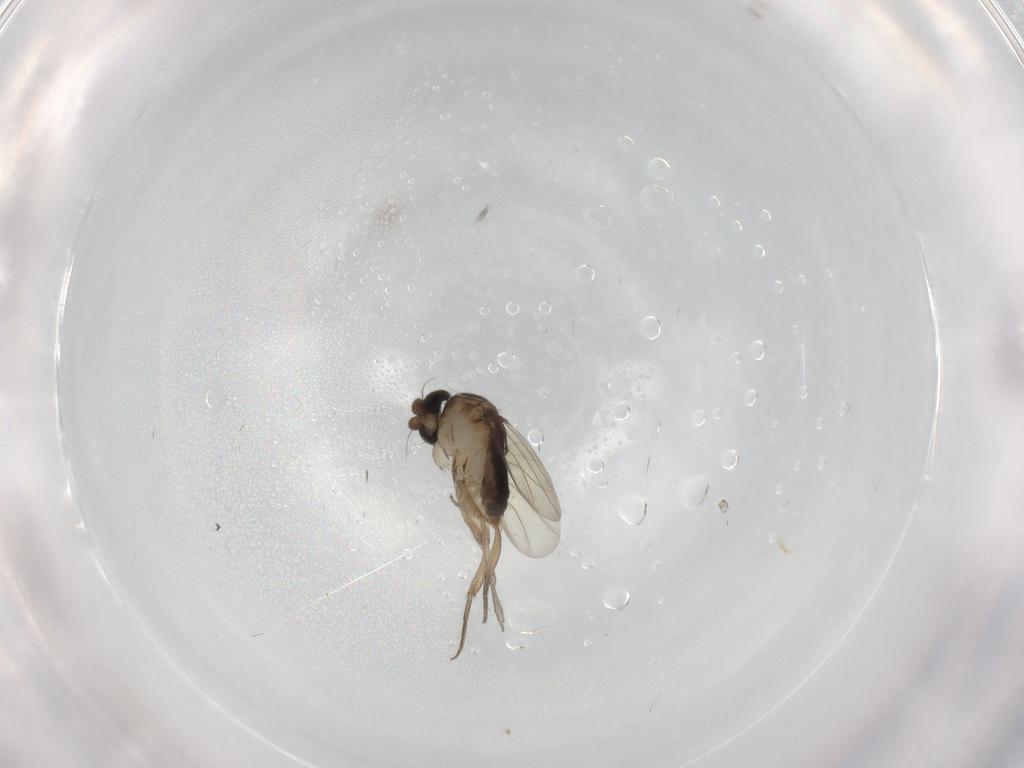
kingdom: Animalia
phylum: Arthropoda
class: Insecta
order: Diptera
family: Phoridae
